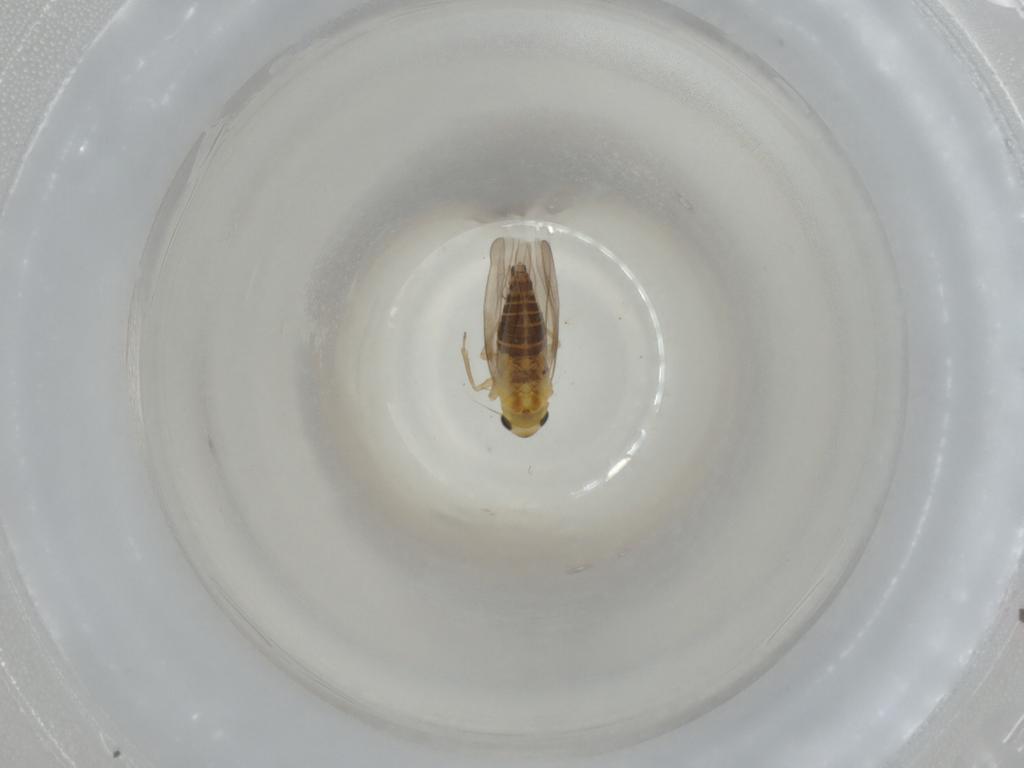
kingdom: Animalia
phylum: Arthropoda
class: Insecta
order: Hemiptera
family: Cicadellidae
